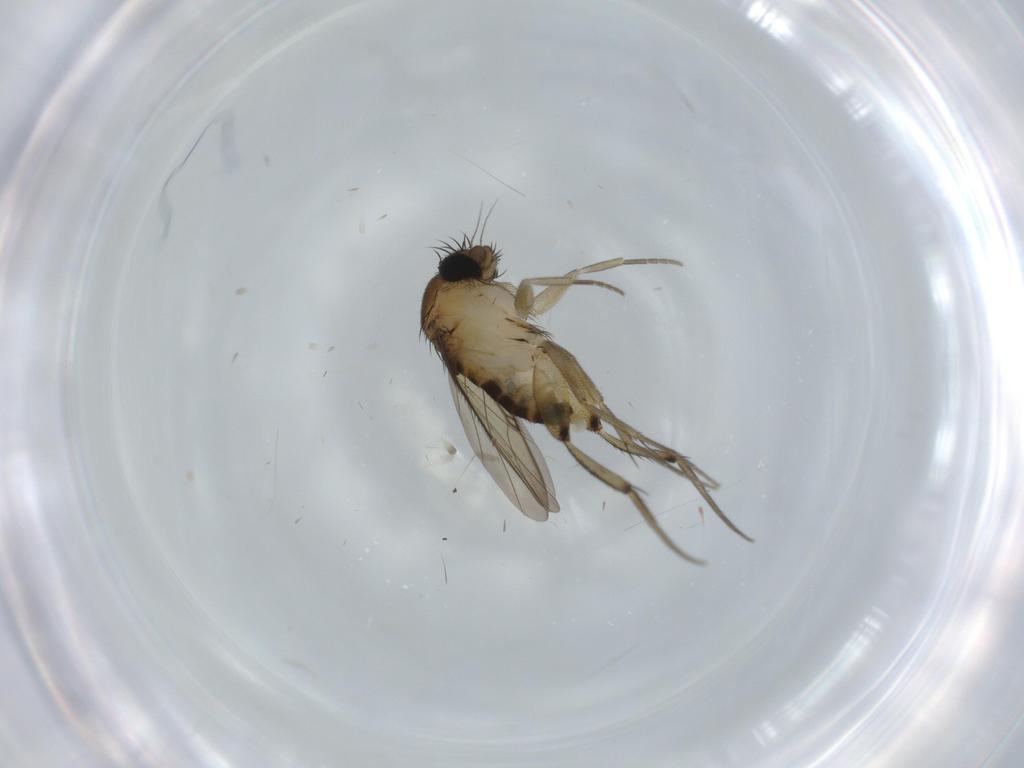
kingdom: Animalia
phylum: Arthropoda
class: Insecta
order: Diptera
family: Phoridae
